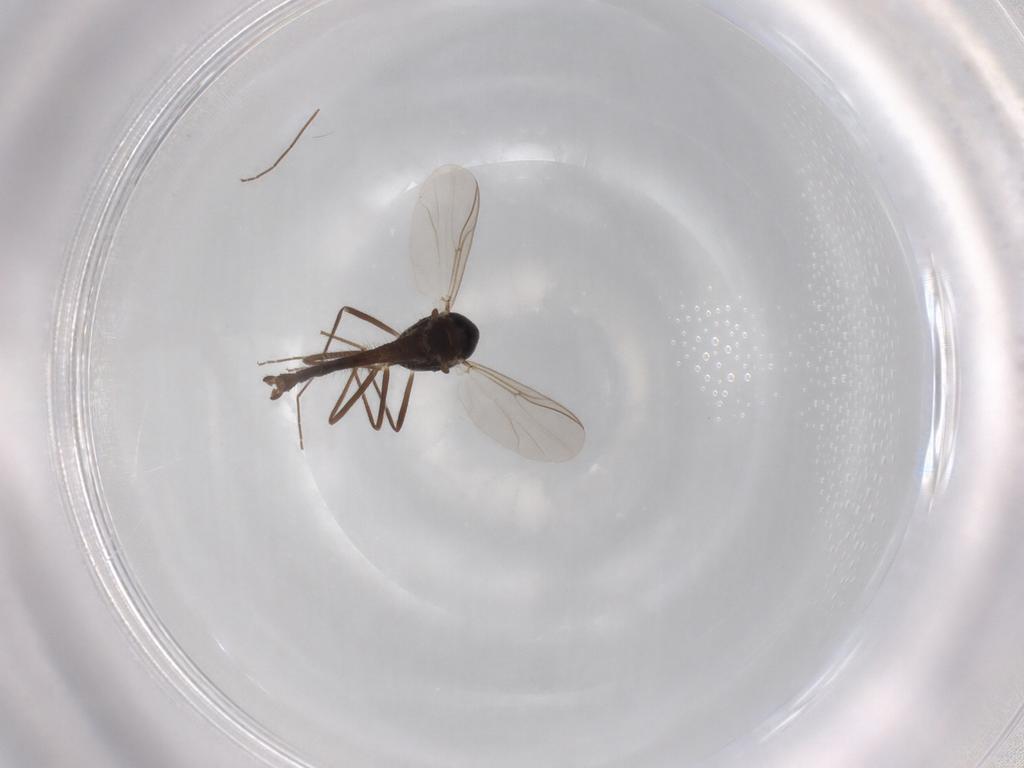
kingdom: Animalia
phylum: Arthropoda
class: Insecta
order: Diptera
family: Chironomidae
